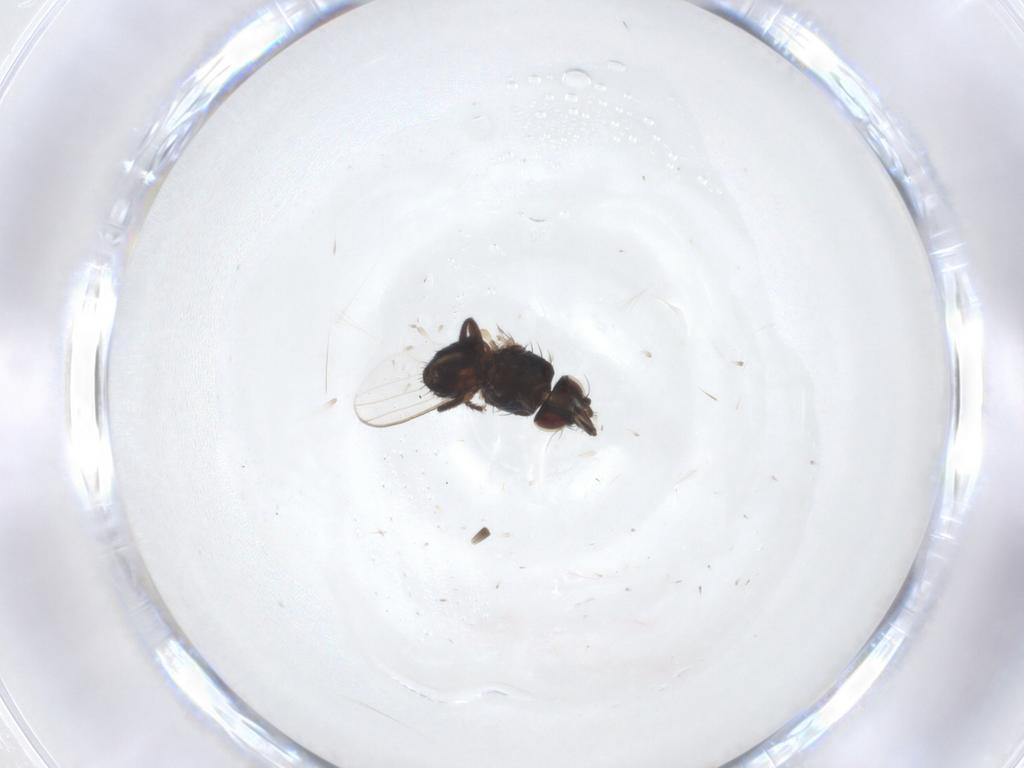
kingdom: Animalia
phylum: Arthropoda
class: Insecta
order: Diptera
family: Milichiidae
